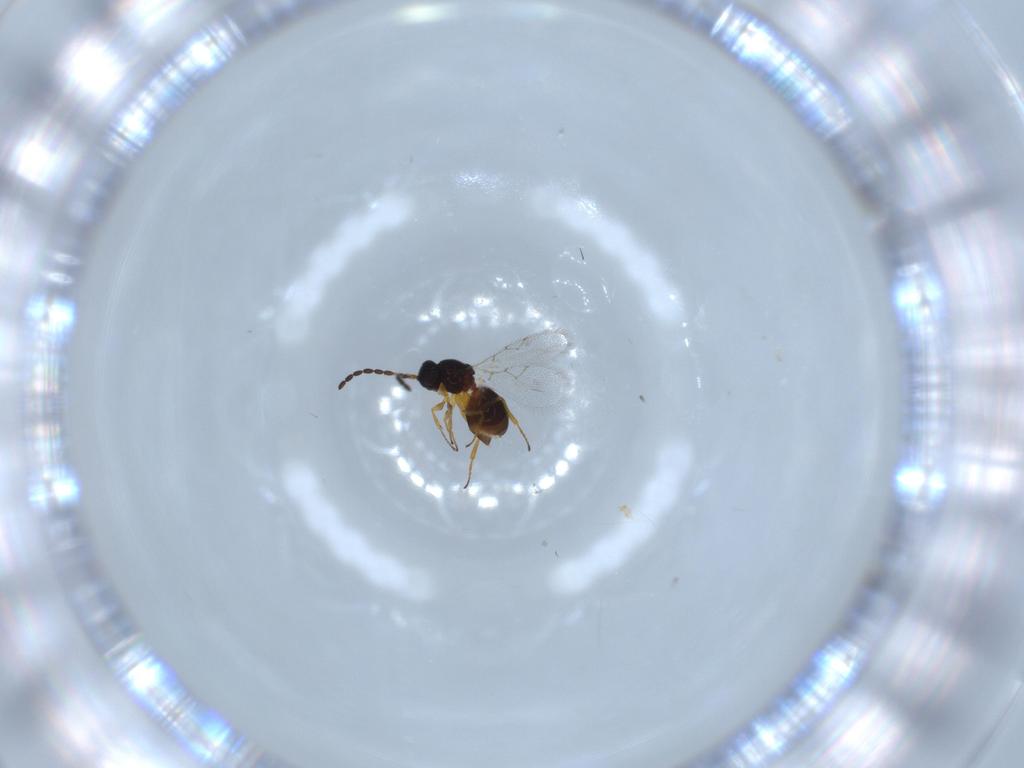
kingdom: Animalia
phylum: Arthropoda
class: Insecta
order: Hymenoptera
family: Figitidae
